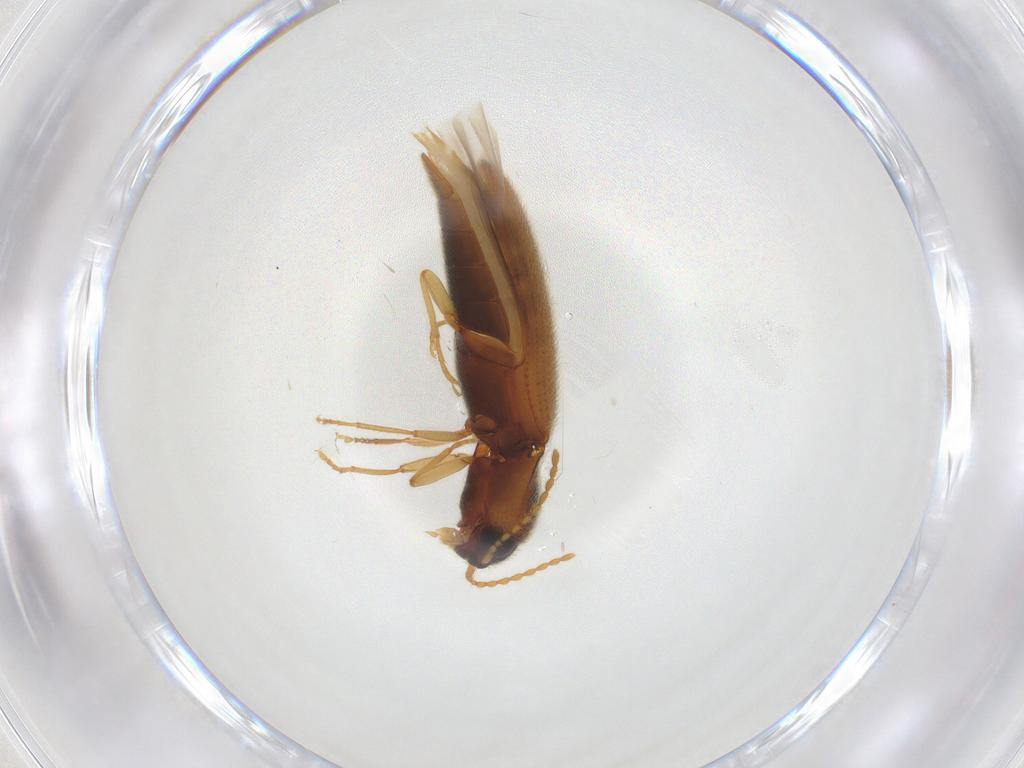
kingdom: Animalia
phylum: Arthropoda
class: Insecta
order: Coleoptera
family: Elateridae
